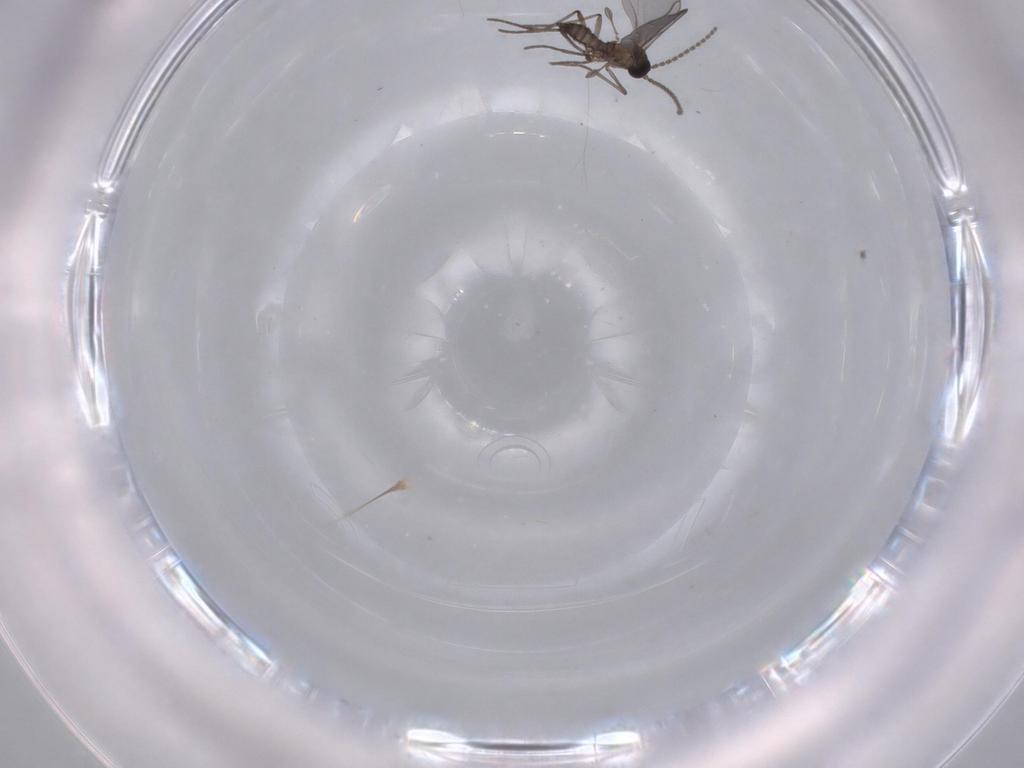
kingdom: Animalia
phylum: Arthropoda
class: Insecta
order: Diptera
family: Sciaridae
